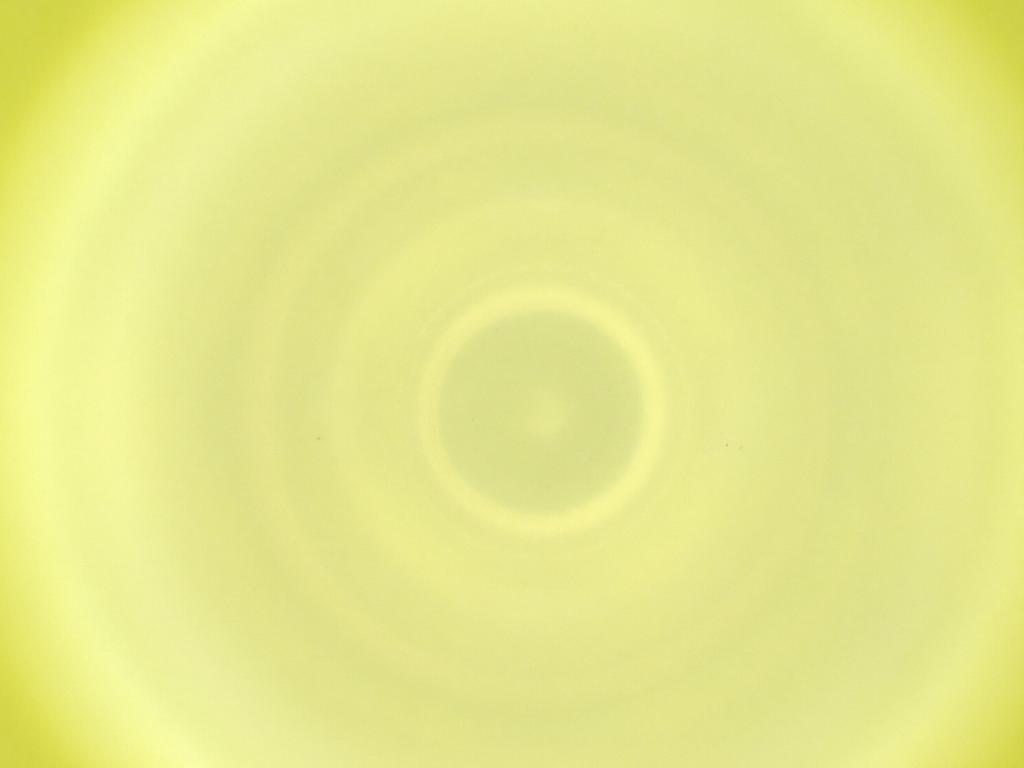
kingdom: Animalia
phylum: Arthropoda
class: Insecta
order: Diptera
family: Cecidomyiidae
